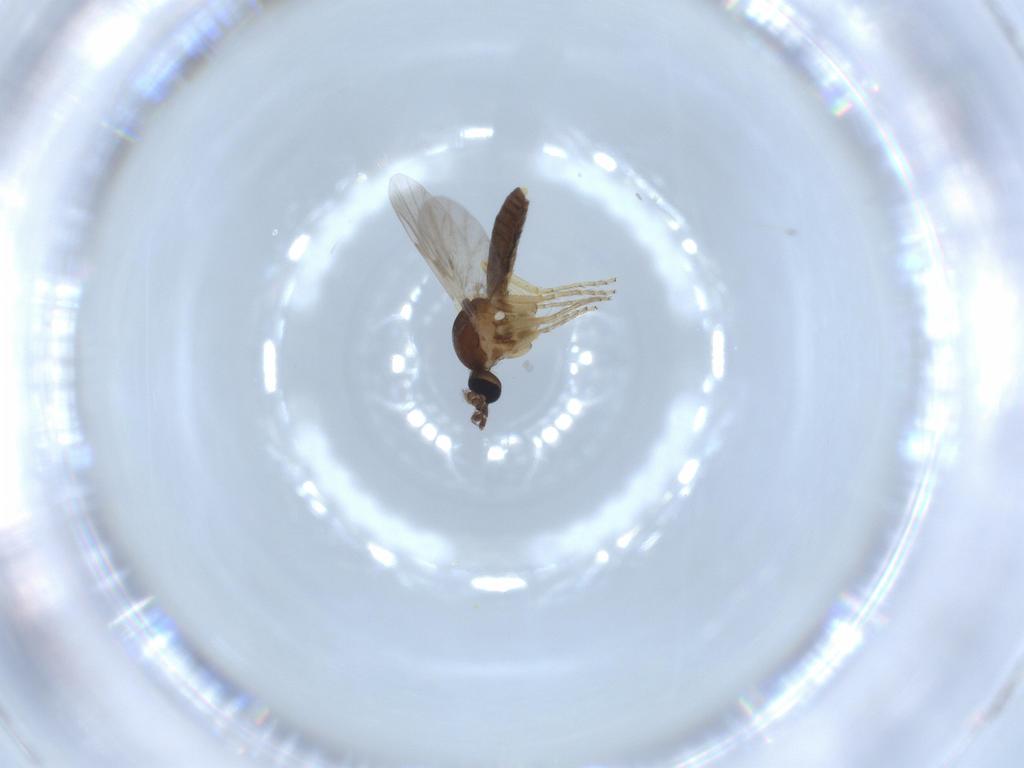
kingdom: Animalia
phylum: Arthropoda
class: Insecta
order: Diptera
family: Ceratopogonidae
